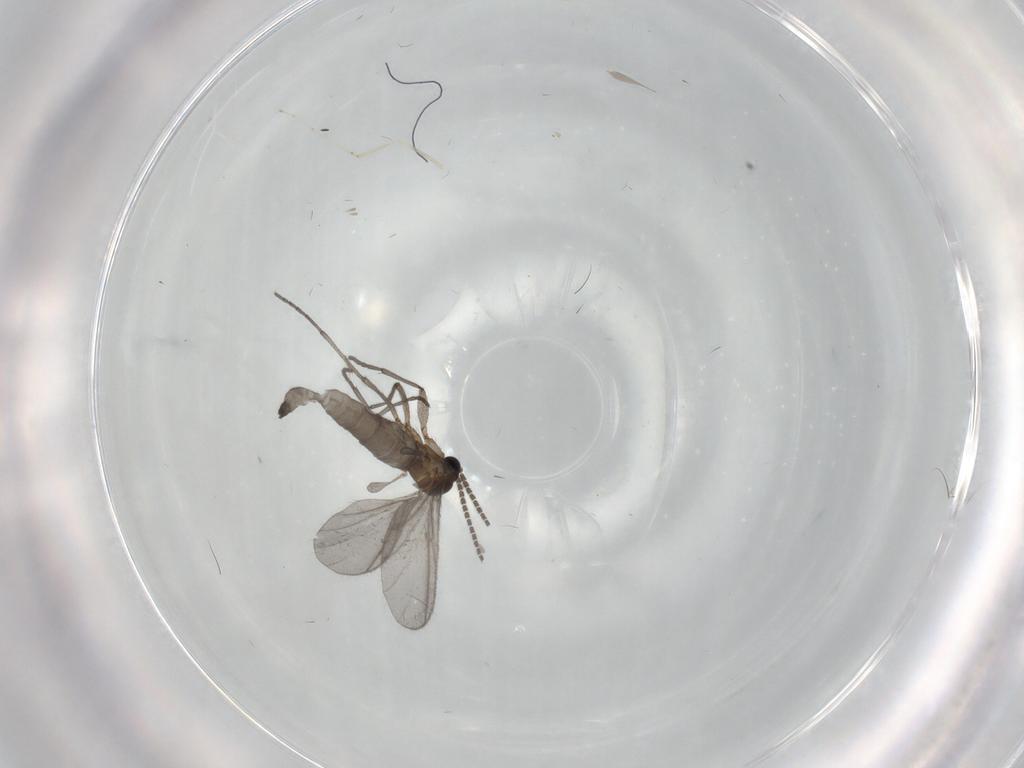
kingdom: Animalia
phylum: Arthropoda
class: Insecta
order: Diptera
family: Sciaridae
